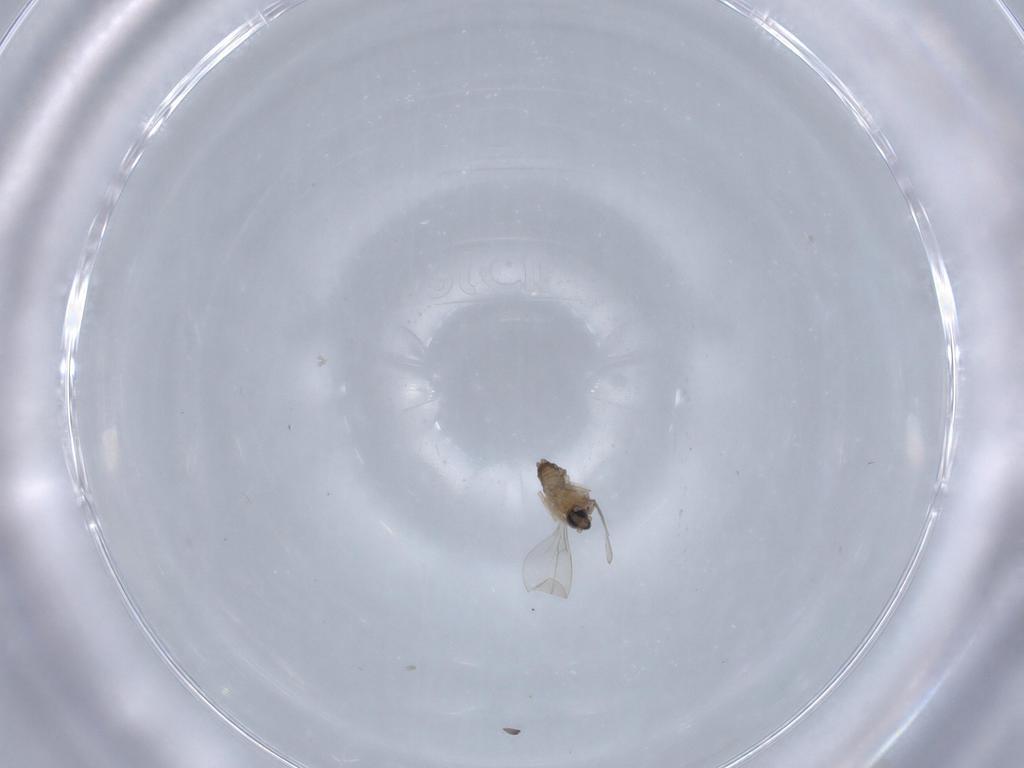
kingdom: Animalia
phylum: Arthropoda
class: Insecta
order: Diptera
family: Cecidomyiidae
